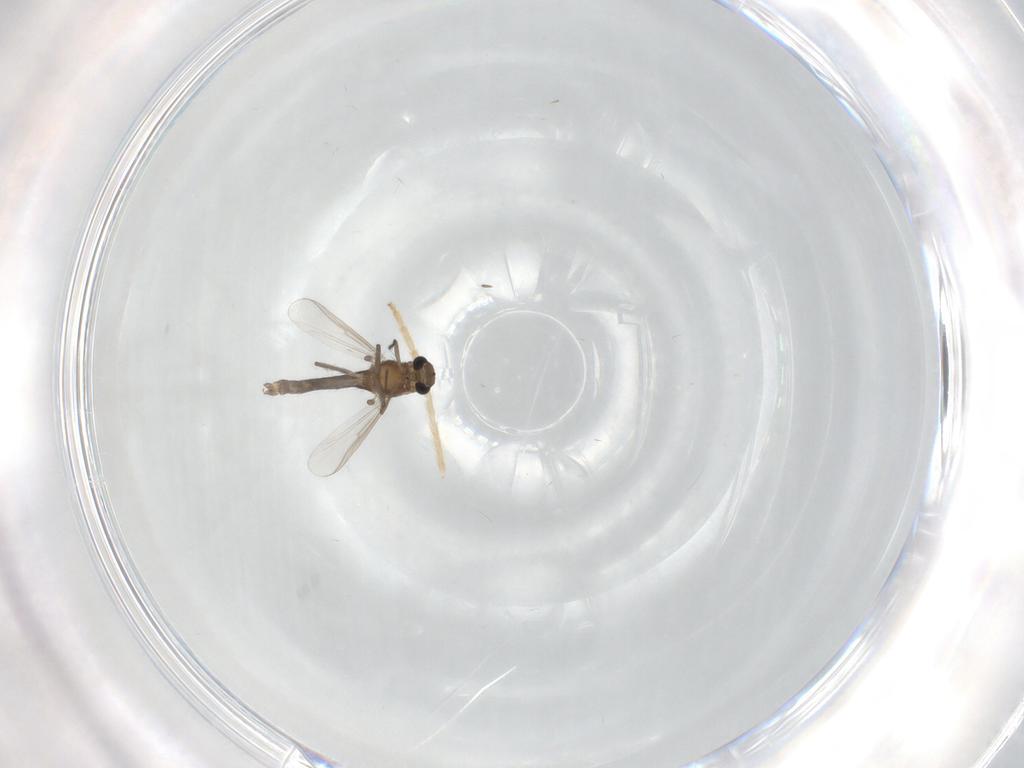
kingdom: Animalia
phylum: Arthropoda
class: Insecta
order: Diptera
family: Chironomidae
